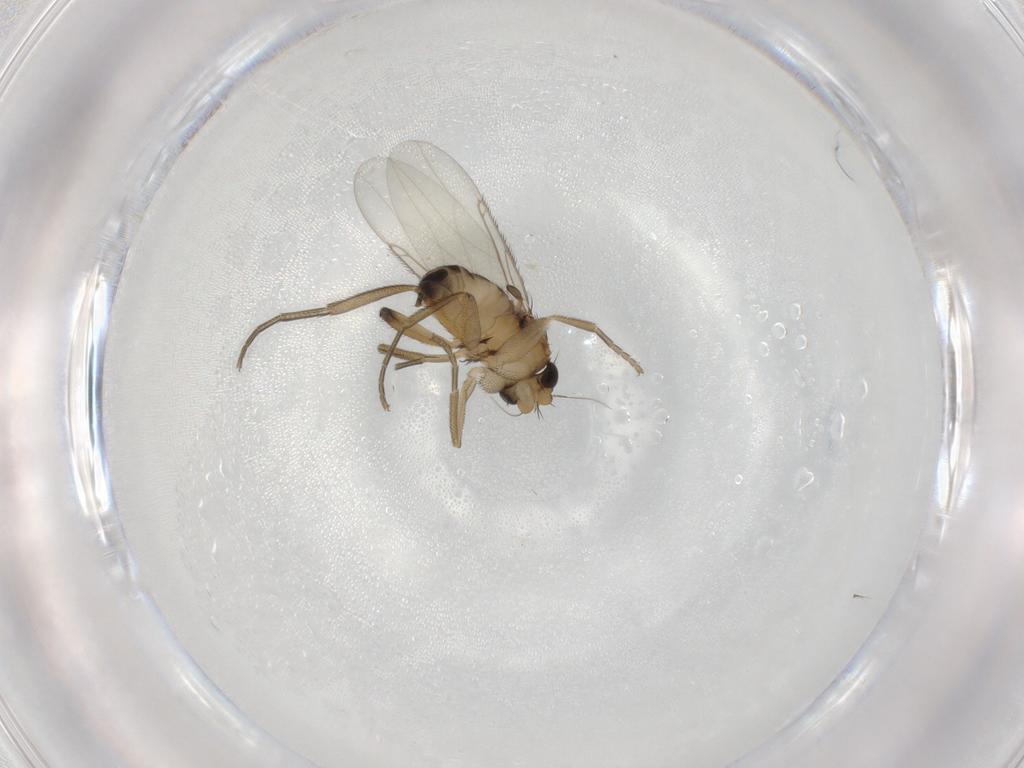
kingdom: Animalia
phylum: Arthropoda
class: Insecta
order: Diptera
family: Phoridae
